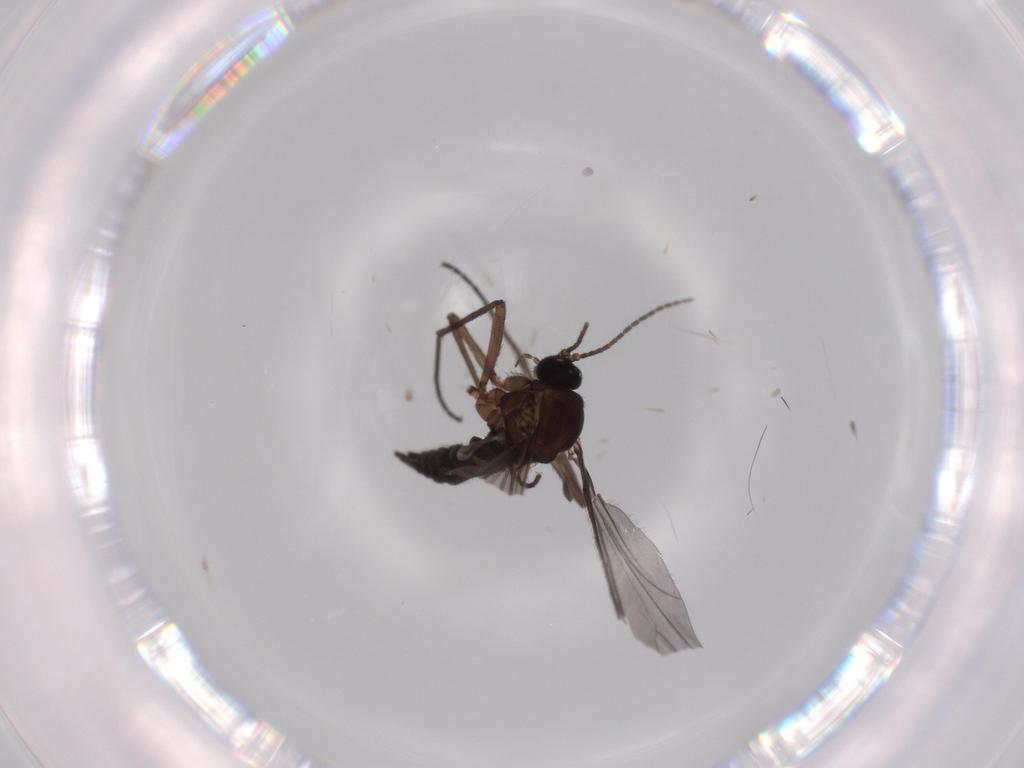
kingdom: Animalia
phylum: Arthropoda
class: Insecta
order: Diptera
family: Sciaridae
